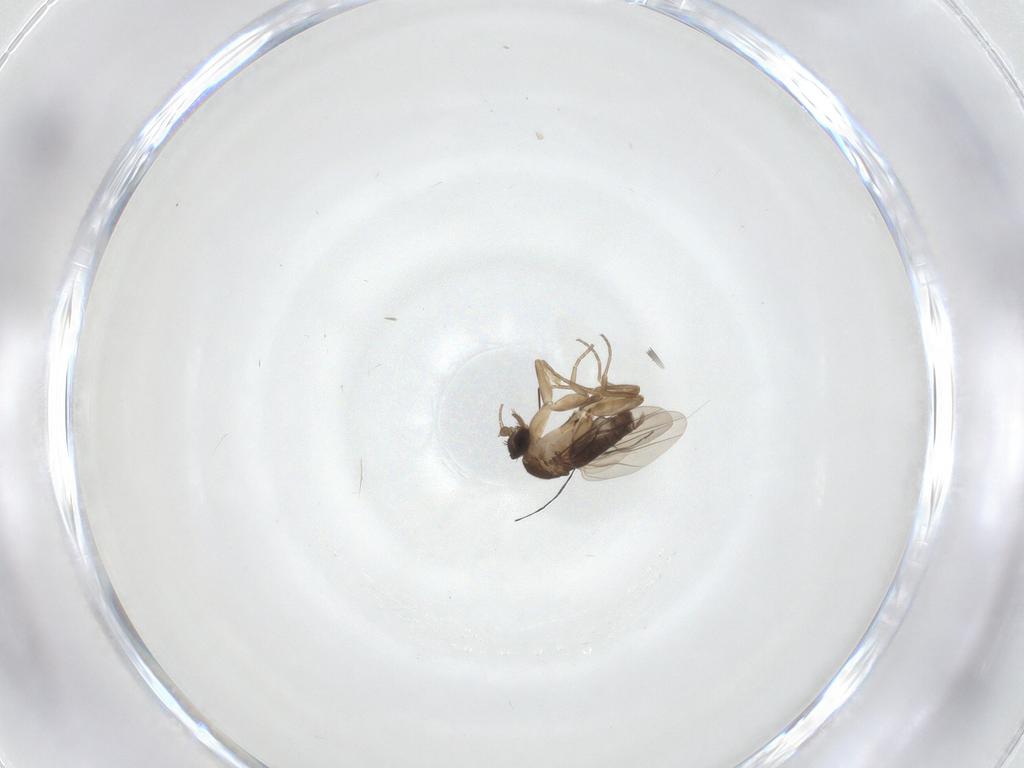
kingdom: Animalia
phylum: Arthropoda
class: Insecta
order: Diptera
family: Phoridae
